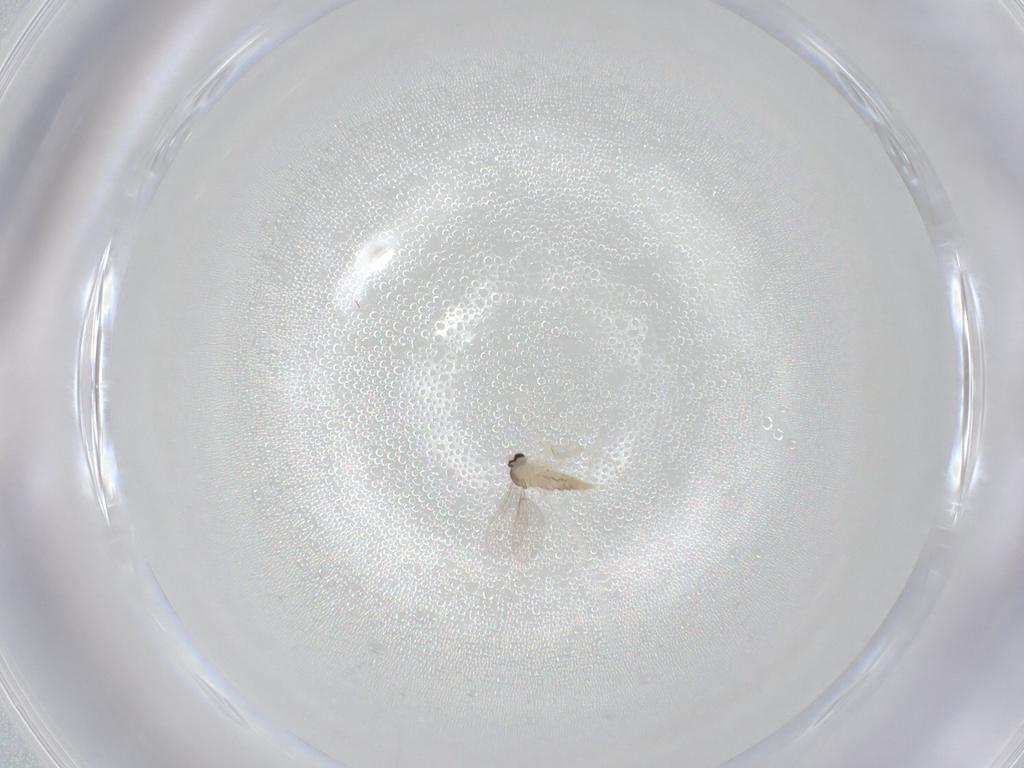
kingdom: Animalia
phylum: Arthropoda
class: Insecta
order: Diptera
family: Cecidomyiidae
